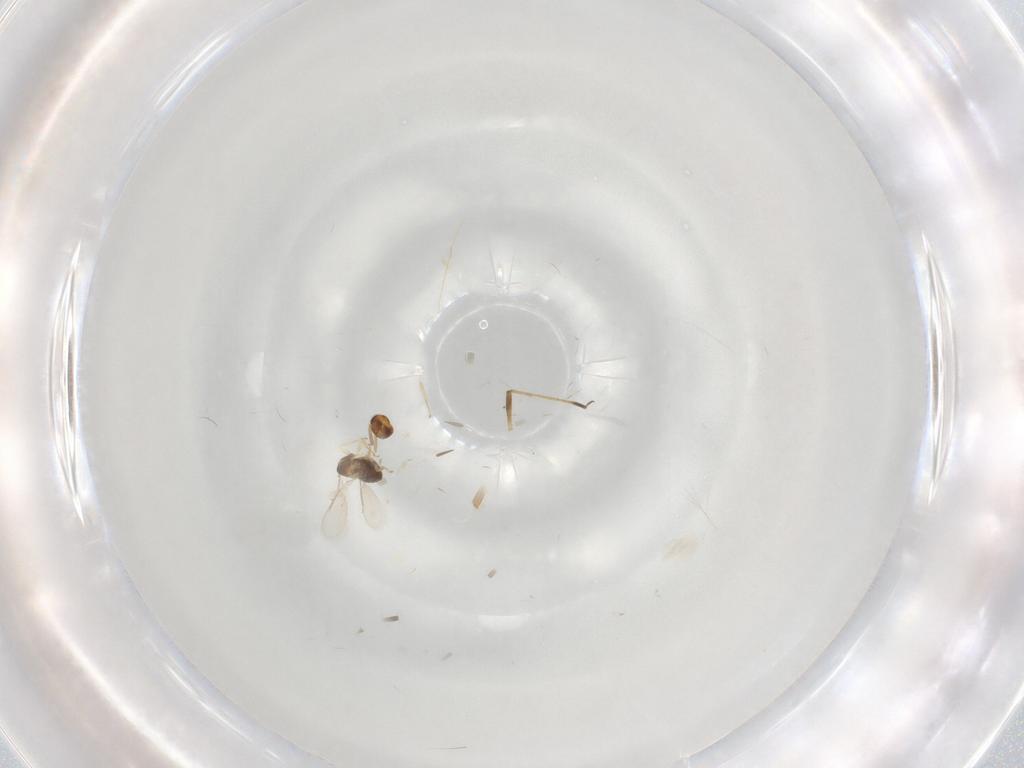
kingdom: Animalia
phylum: Arthropoda
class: Insecta
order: Hymenoptera
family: Aphelinidae
